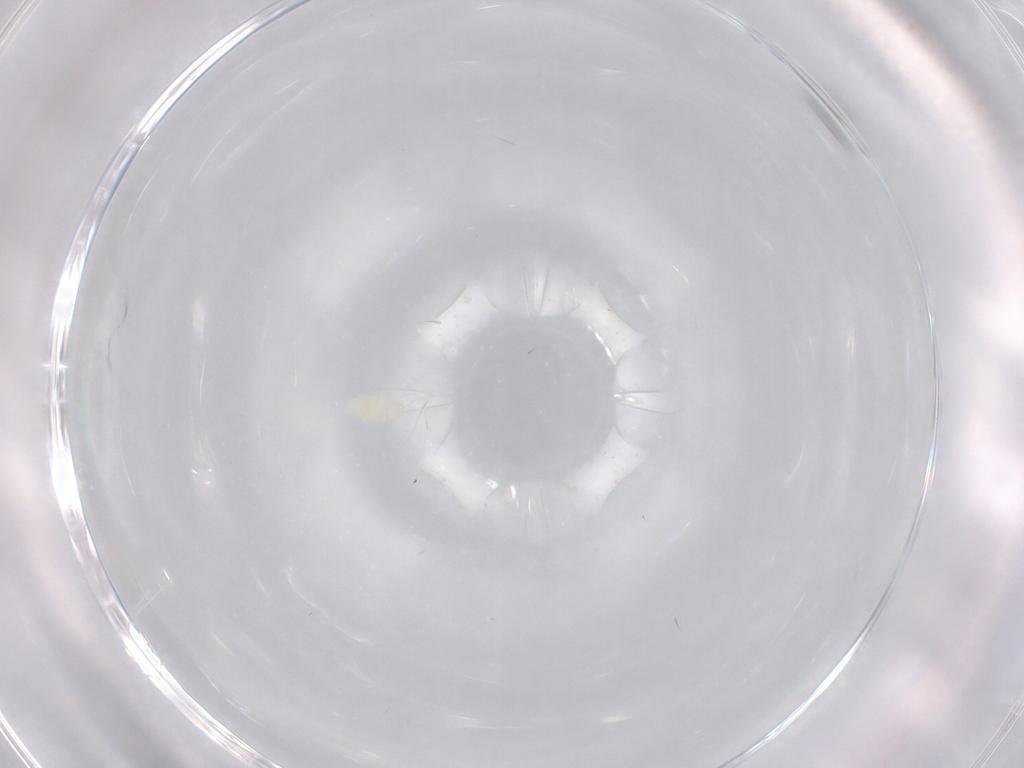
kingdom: Animalia
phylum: Arthropoda
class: Arachnida
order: Trombidiformes
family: Eupodidae
